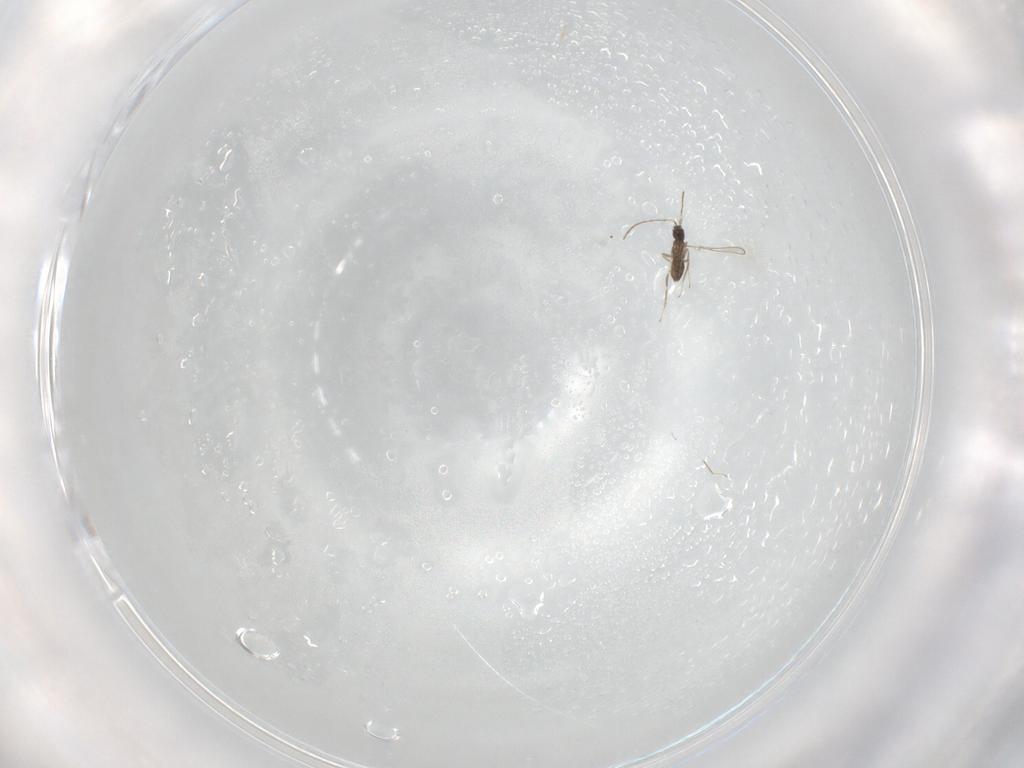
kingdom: Animalia
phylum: Arthropoda
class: Insecta
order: Hymenoptera
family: Mymaridae
